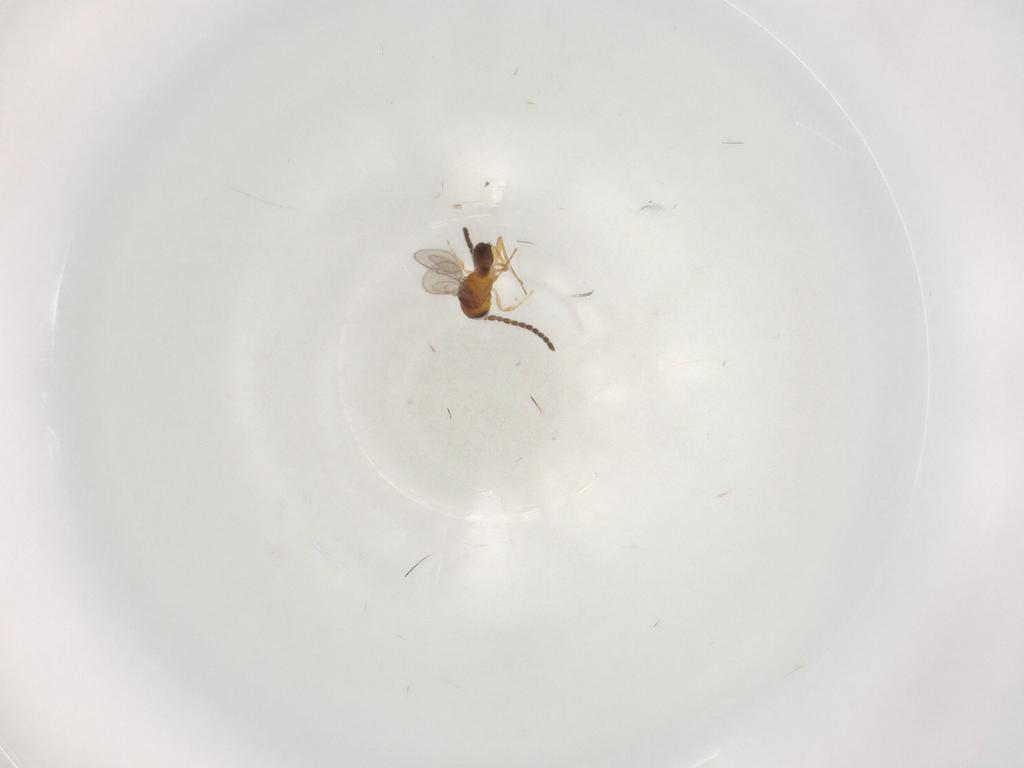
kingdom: Animalia
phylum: Arthropoda
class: Insecta
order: Hymenoptera
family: Scelionidae
